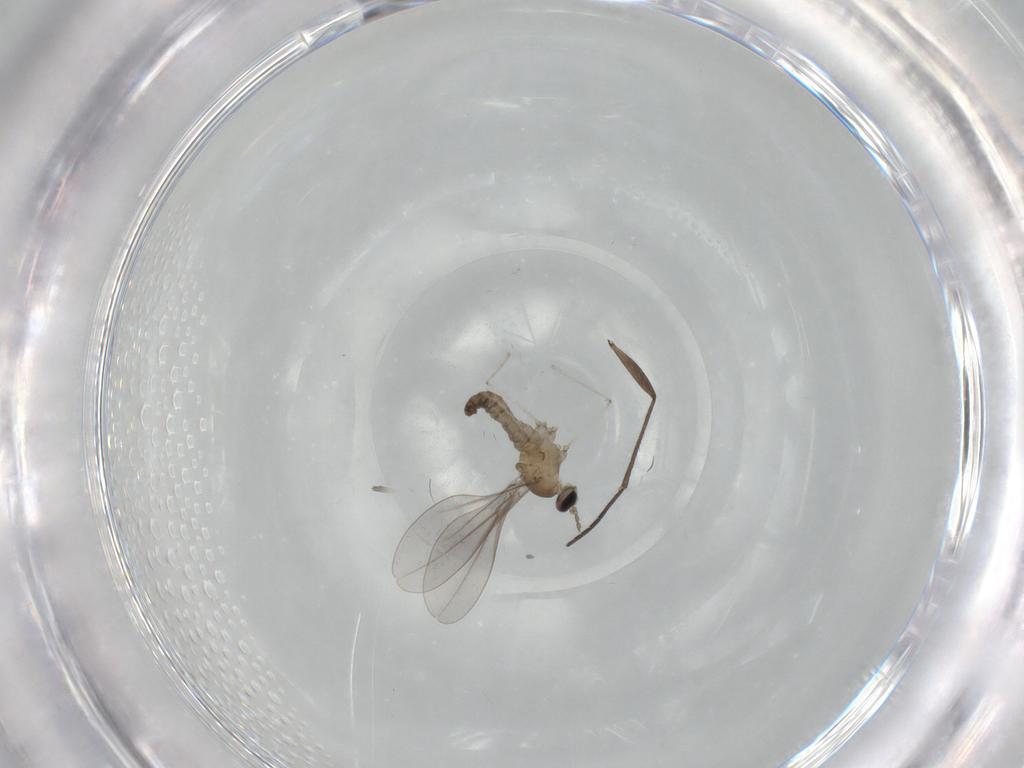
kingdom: Animalia
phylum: Arthropoda
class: Insecta
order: Diptera
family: Sciaridae
